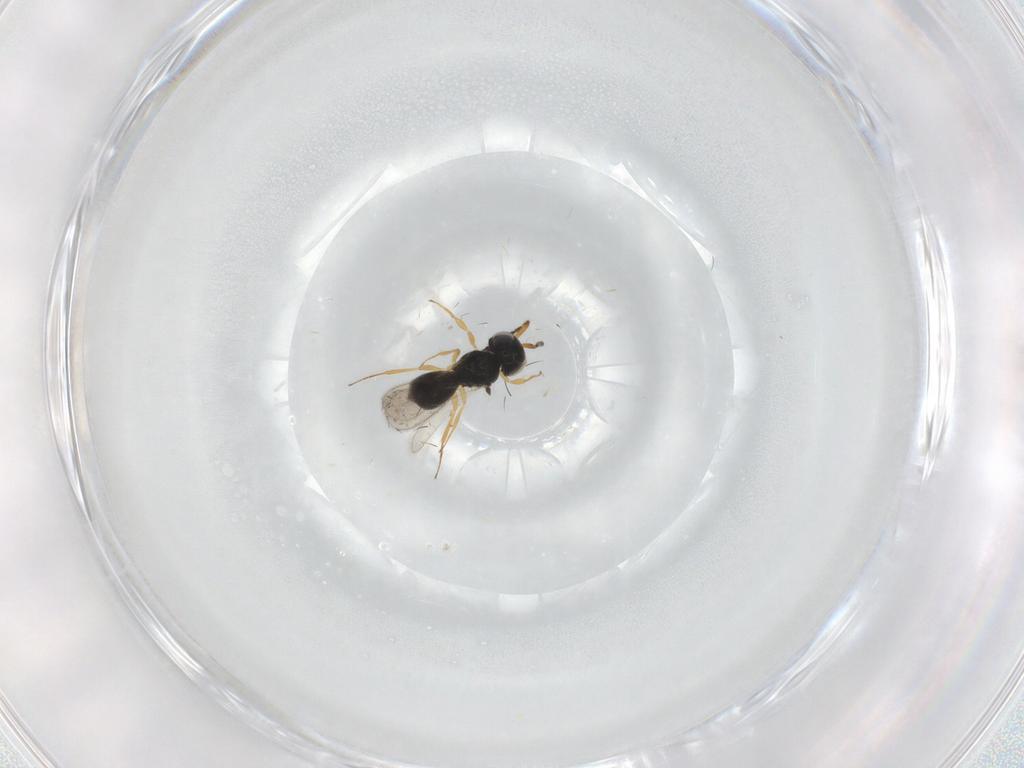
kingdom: Animalia
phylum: Arthropoda
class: Insecta
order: Hymenoptera
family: Scelionidae
